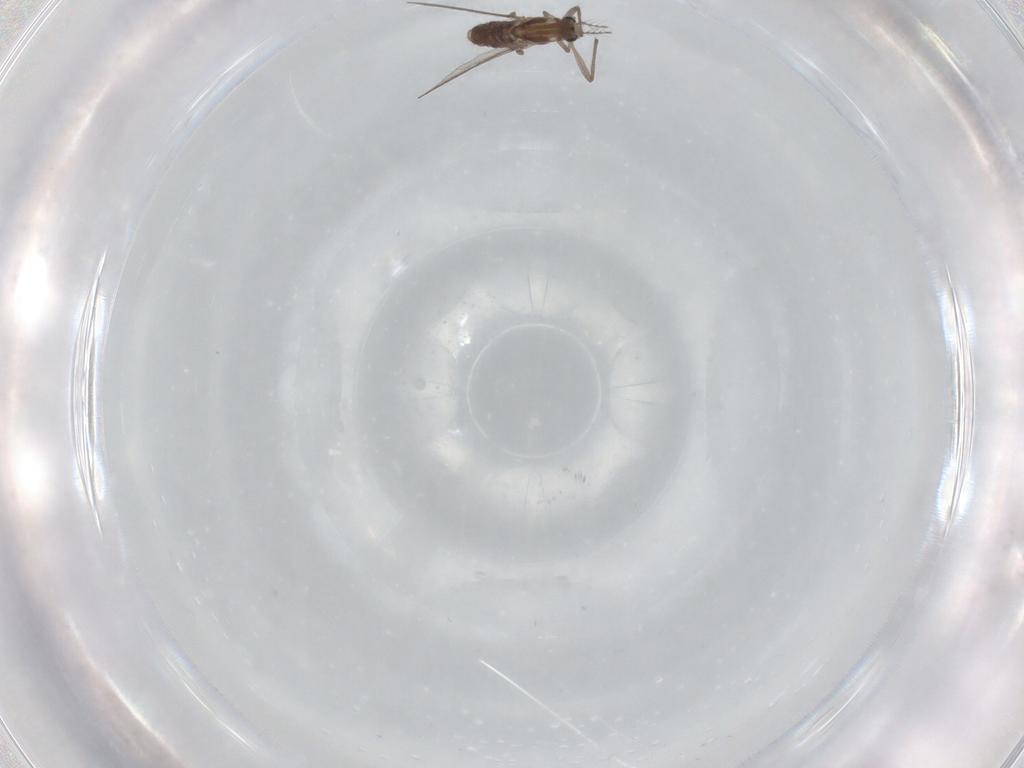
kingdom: Animalia
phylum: Arthropoda
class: Insecta
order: Diptera
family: Chironomidae
